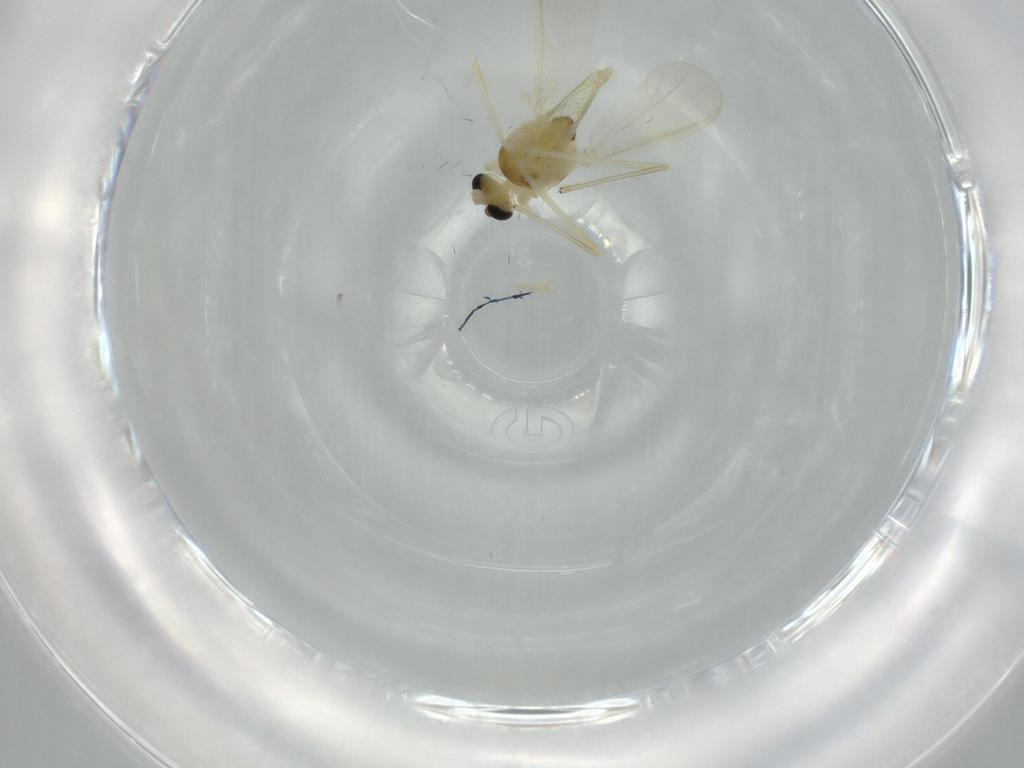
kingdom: Animalia
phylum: Arthropoda
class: Insecta
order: Diptera
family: Chironomidae
